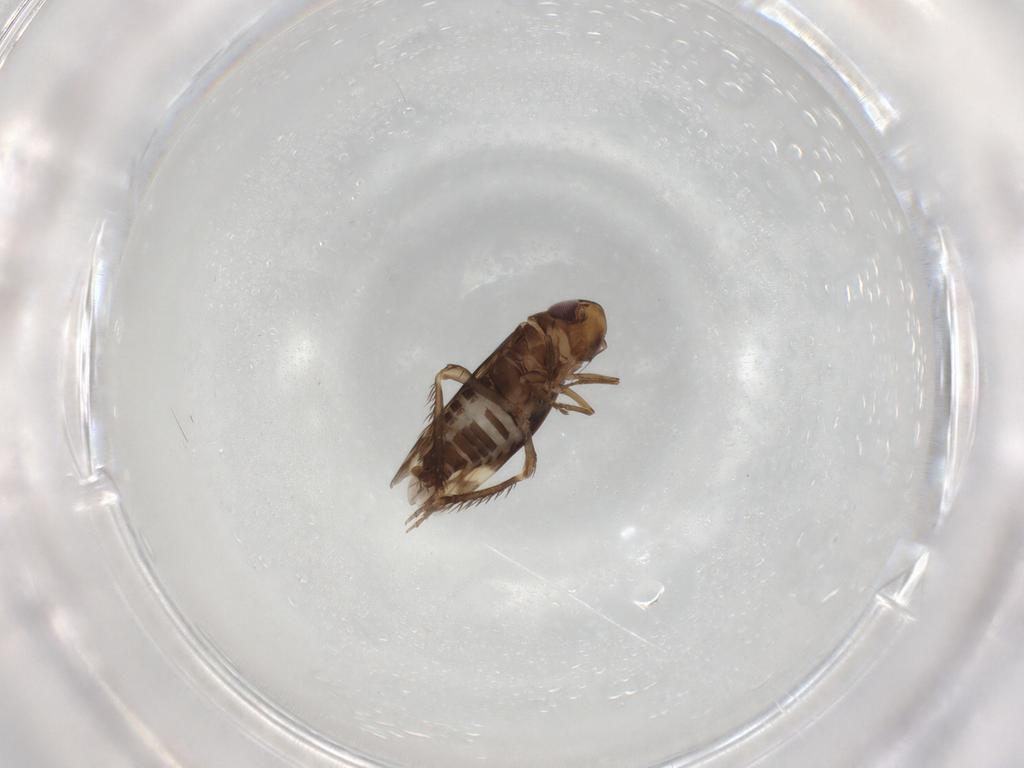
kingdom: Animalia
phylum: Arthropoda
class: Insecta
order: Hemiptera
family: Cicadellidae
